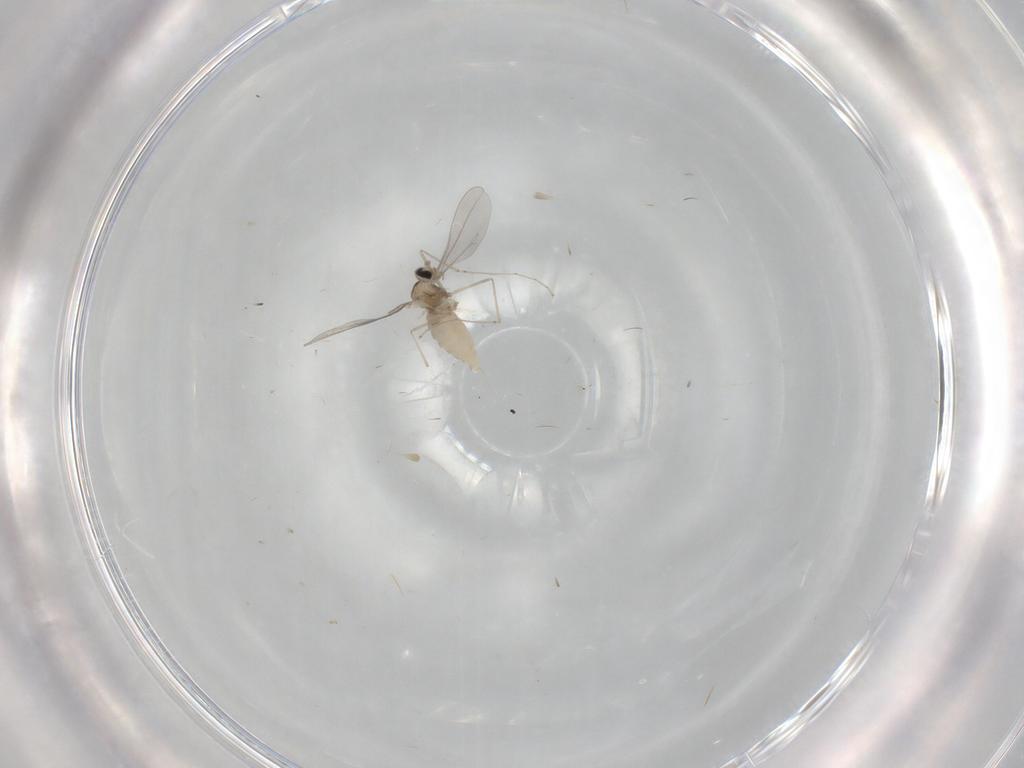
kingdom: Animalia
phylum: Arthropoda
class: Insecta
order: Diptera
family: Cecidomyiidae
